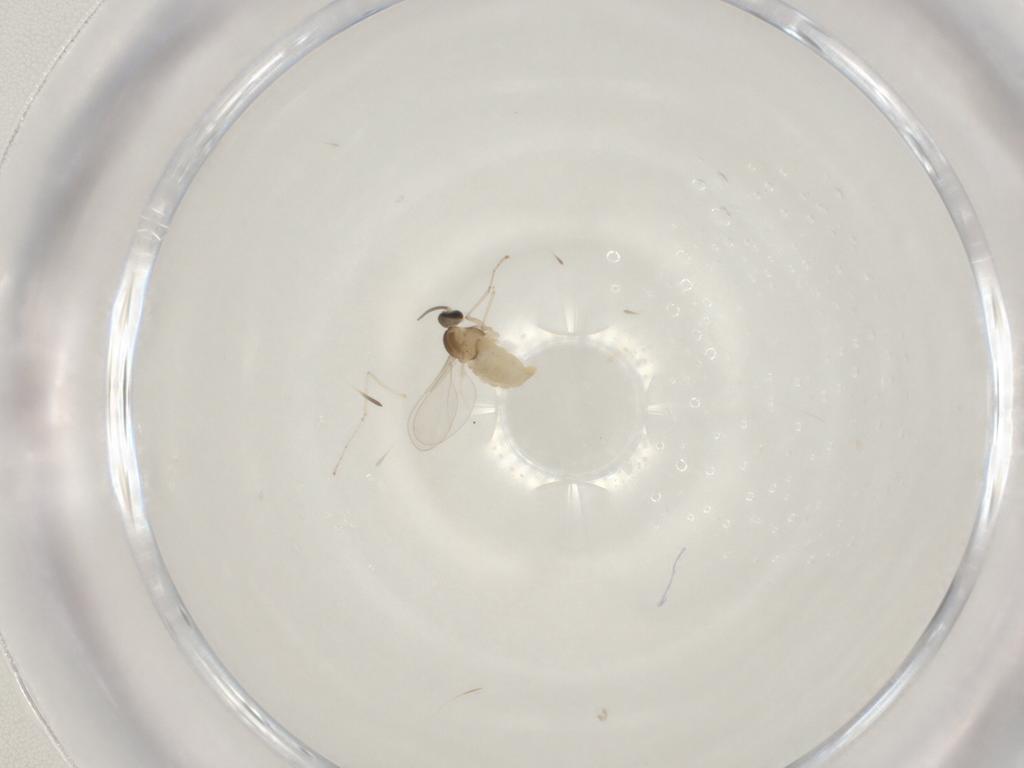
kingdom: Animalia
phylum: Arthropoda
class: Insecta
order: Diptera
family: Cecidomyiidae
